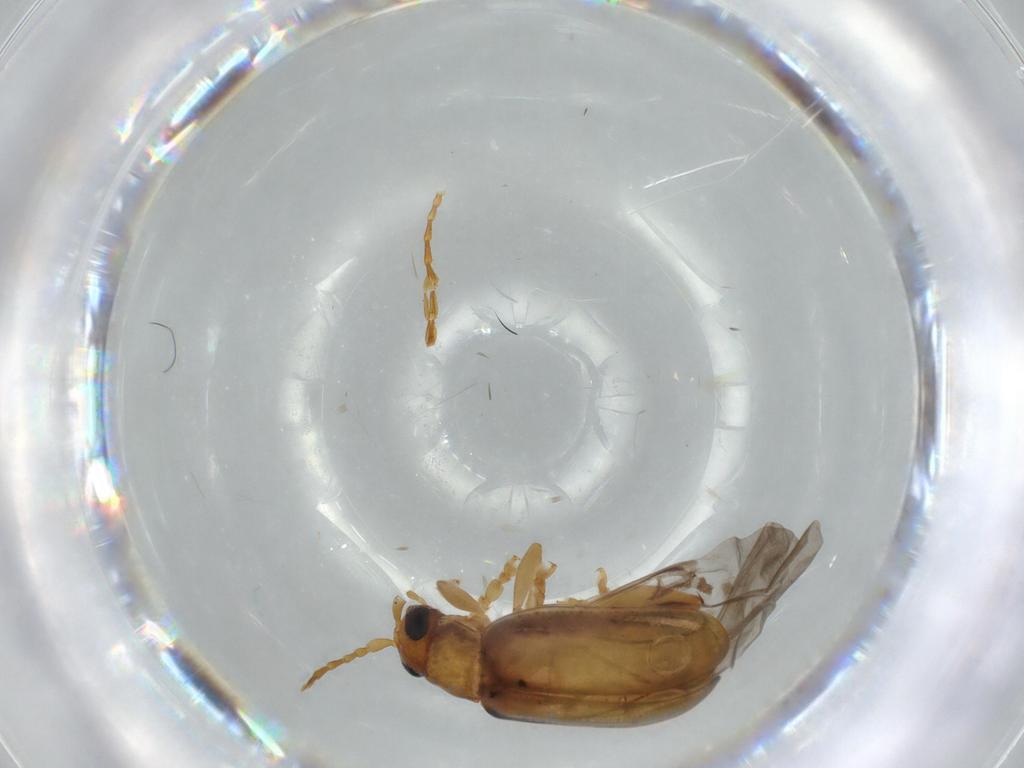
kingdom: Animalia
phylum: Arthropoda
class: Insecta
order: Coleoptera
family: Chrysomelidae
